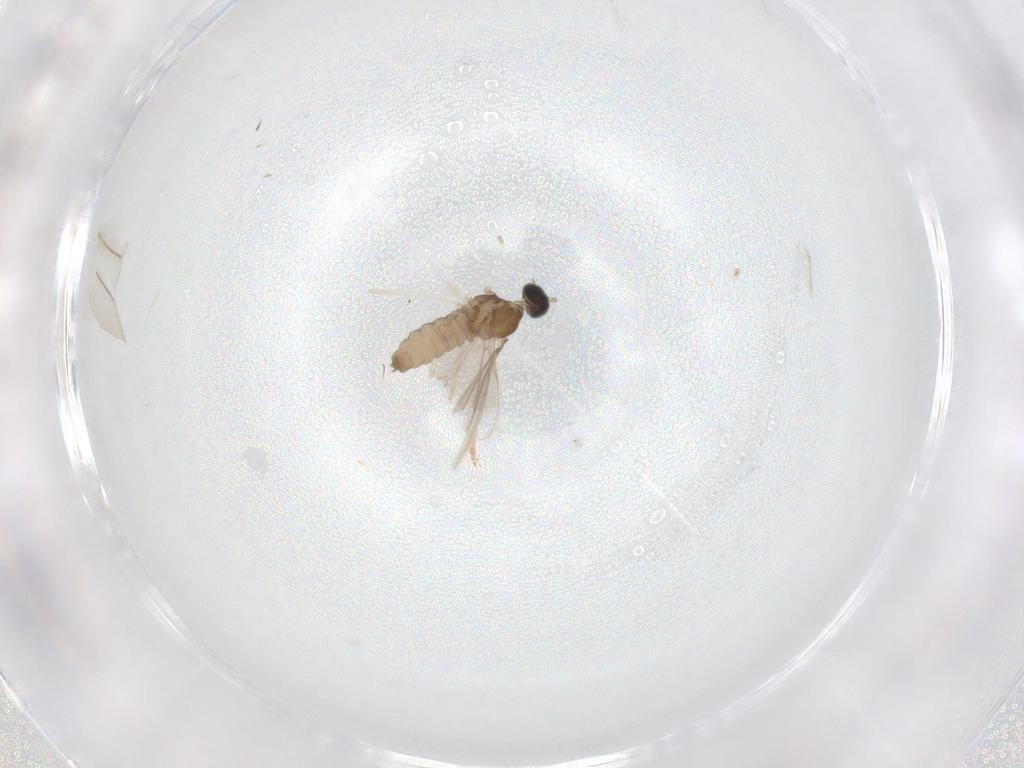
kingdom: Animalia
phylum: Arthropoda
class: Insecta
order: Diptera
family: Cecidomyiidae
